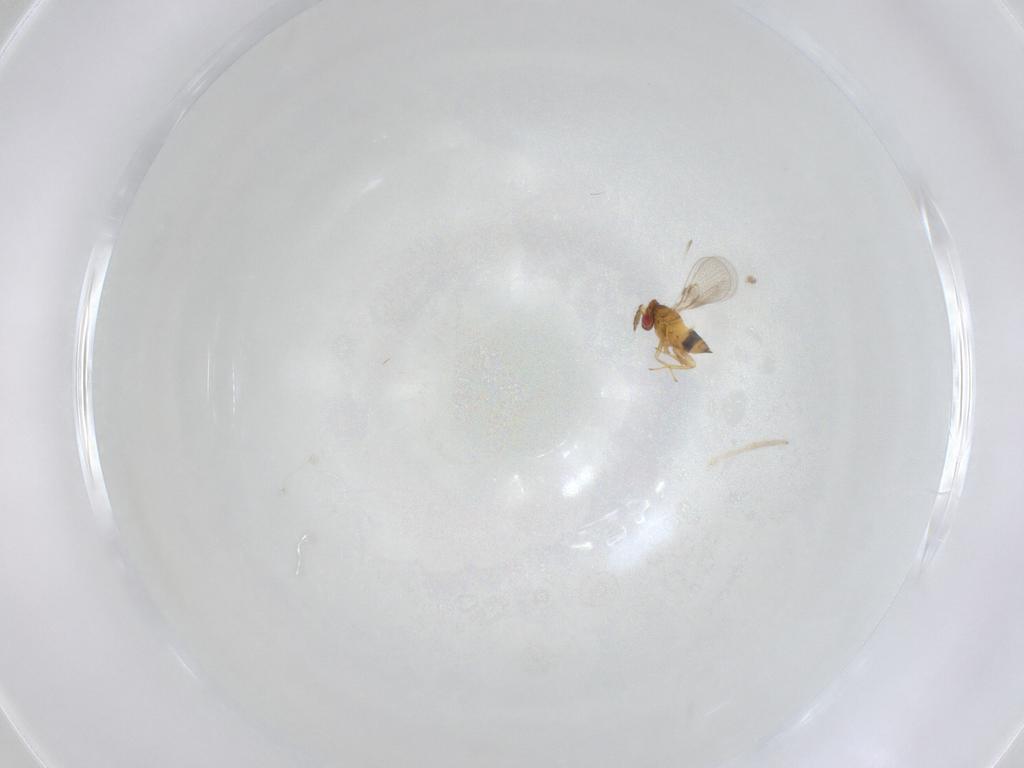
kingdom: Animalia
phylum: Arthropoda
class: Insecta
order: Hymenoptera
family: Trichogrammatidae
